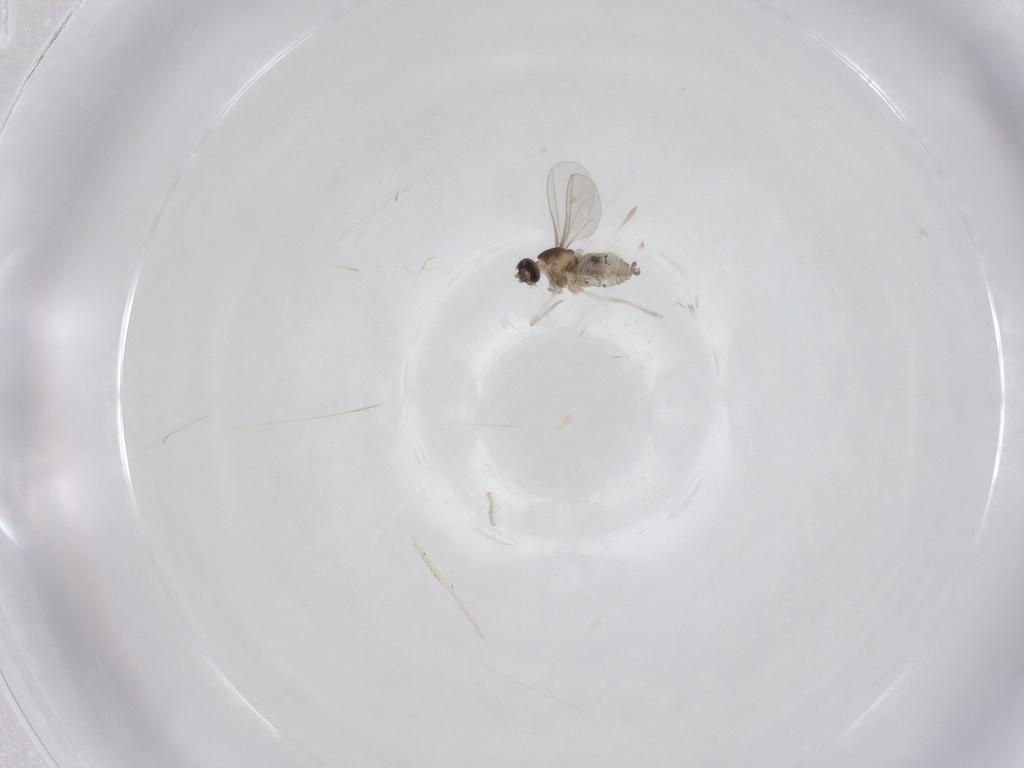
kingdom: Animalia
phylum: Arthropoda
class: Insecta
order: Diptera
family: Cecidomyiidae
